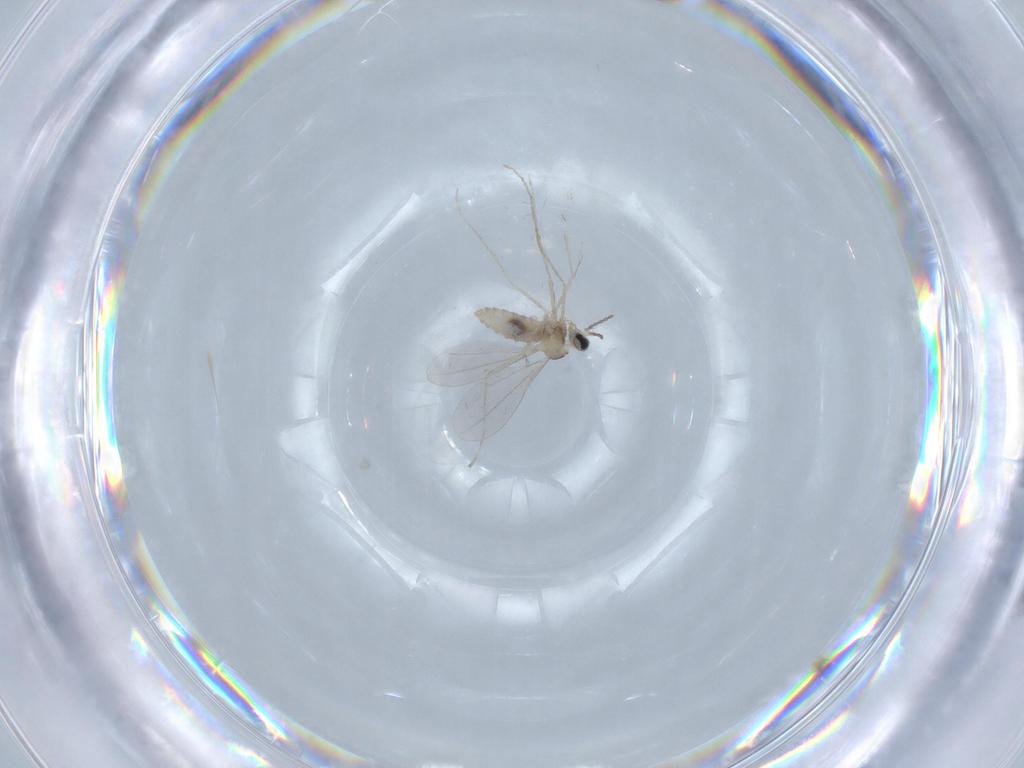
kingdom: Animalia
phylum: Arthropoda
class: Insecta
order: Diptera
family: Cecidomyiidae
